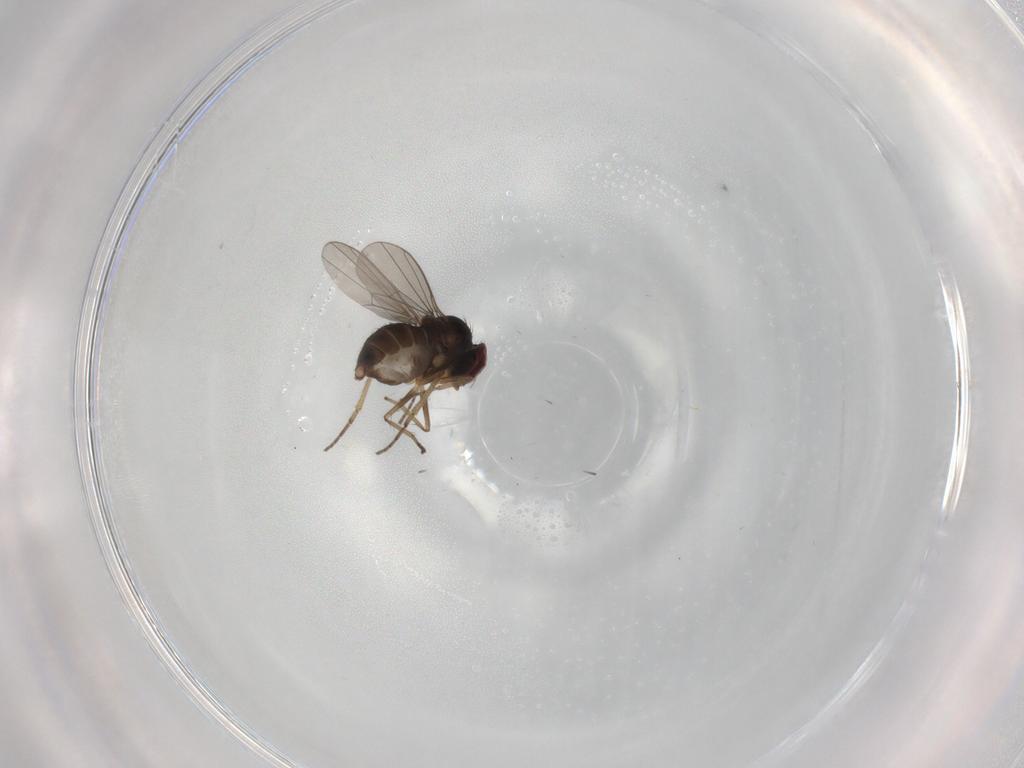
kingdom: Animalia
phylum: Arthropoda
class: Insecta
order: Diptera
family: Dolichopodidae
